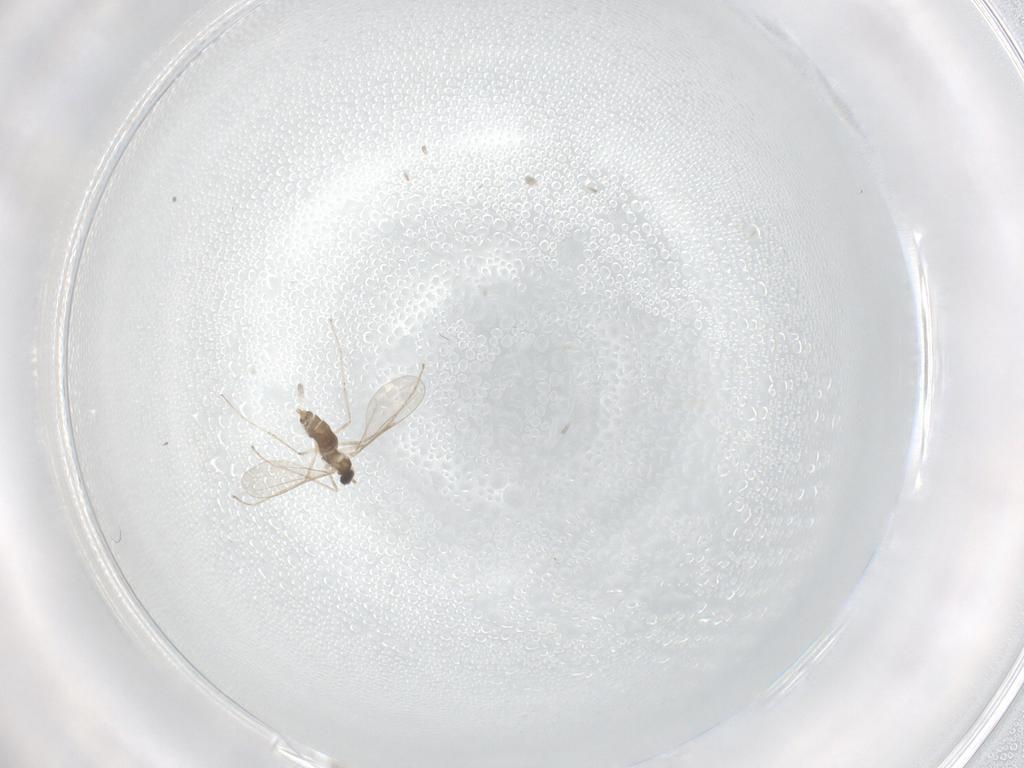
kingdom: Animalia
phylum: Arthropoda
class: Insecta
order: Diptera
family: Cecidomyiidae
